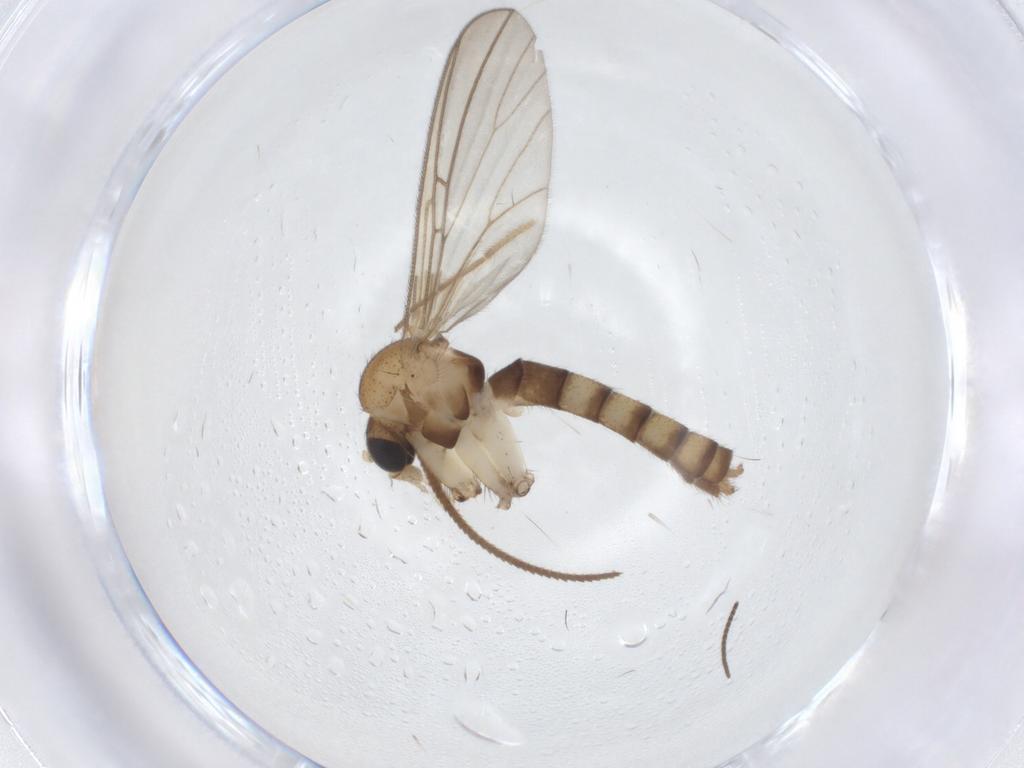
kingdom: Animalia
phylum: Arthropoda
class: Insecta
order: Diptera
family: Mycetophilidae
